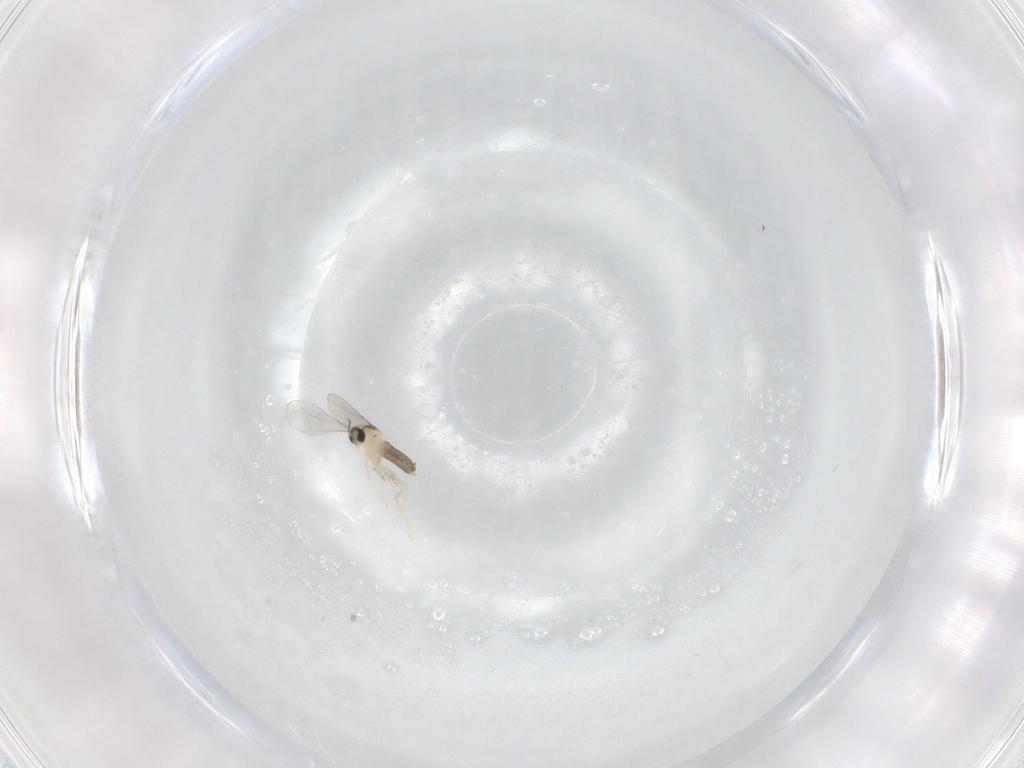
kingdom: Animalia
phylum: Arthropoda
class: Insecta
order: Diptera
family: Sciaridae
